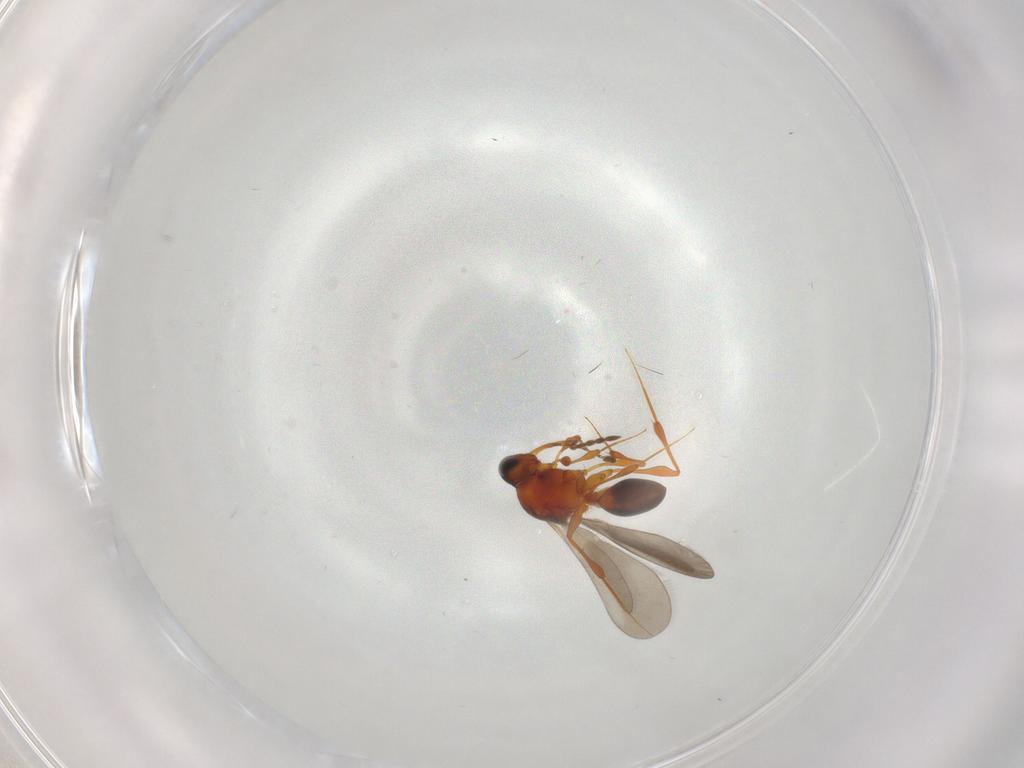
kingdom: Animalia
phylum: Arthropoda
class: Insecta
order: Hymenoptera
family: Platygastridae
